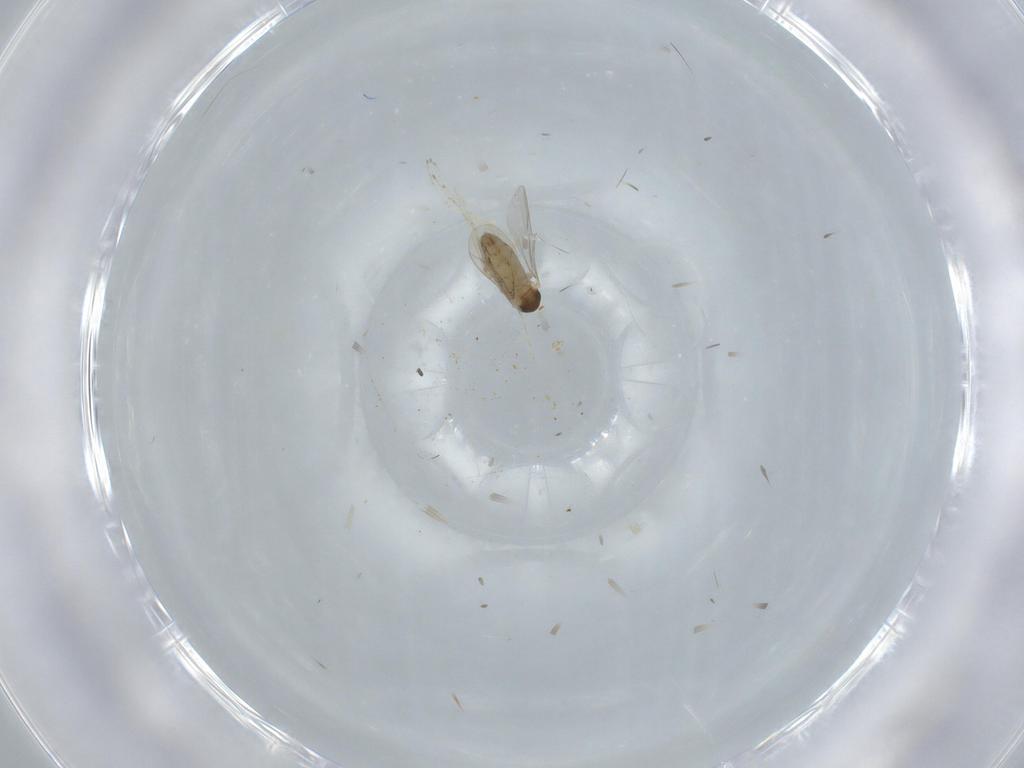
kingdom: Animalia
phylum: Arthropoda
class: Insecta
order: Diptera
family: Cecidomyiidae
